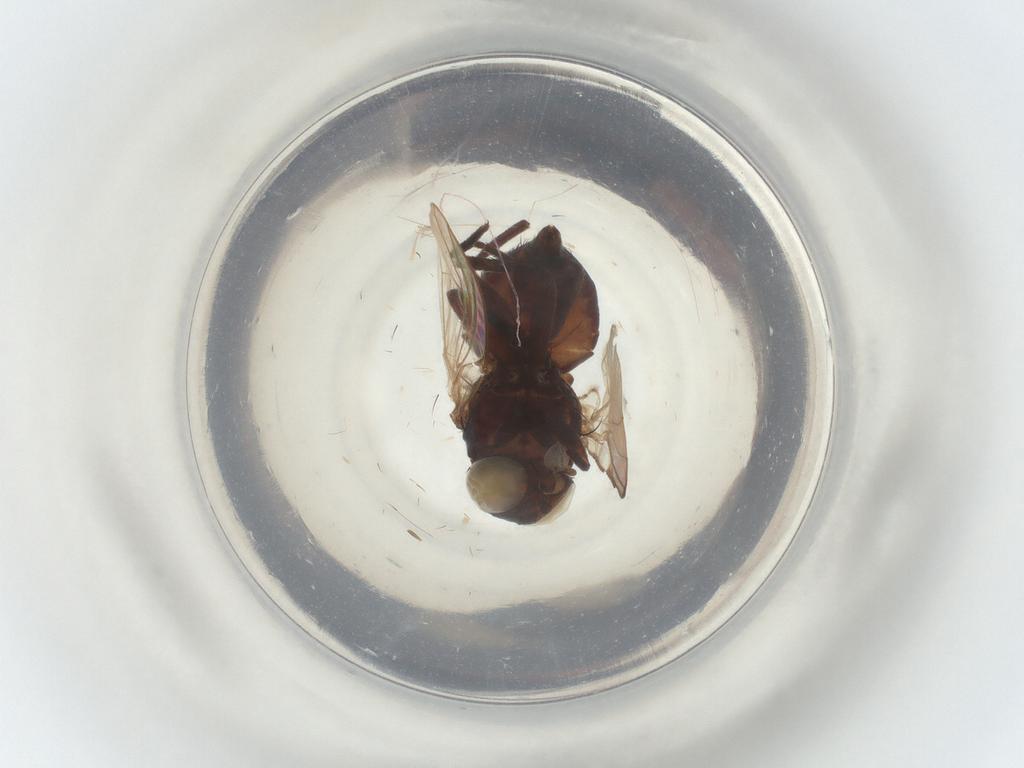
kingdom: Animalia
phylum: Arthropoda
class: Insecta
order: Diptera
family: Agromyzidae
